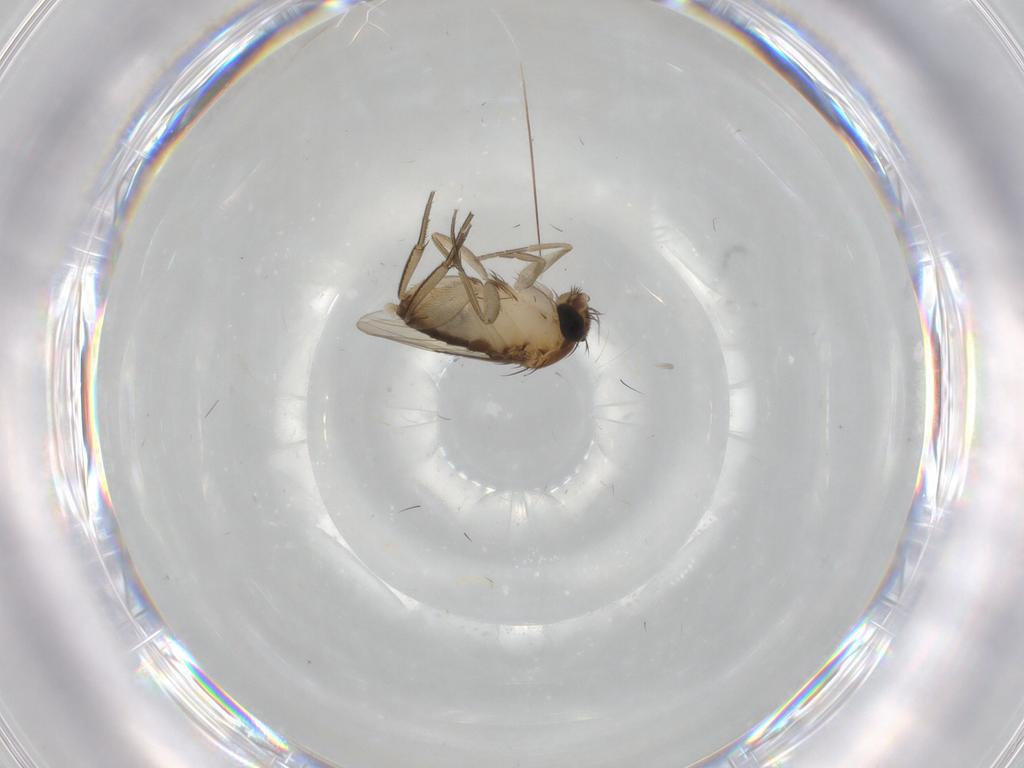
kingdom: Animalia
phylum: Arthropoda
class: Insecta
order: Diptera
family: Phoridae
